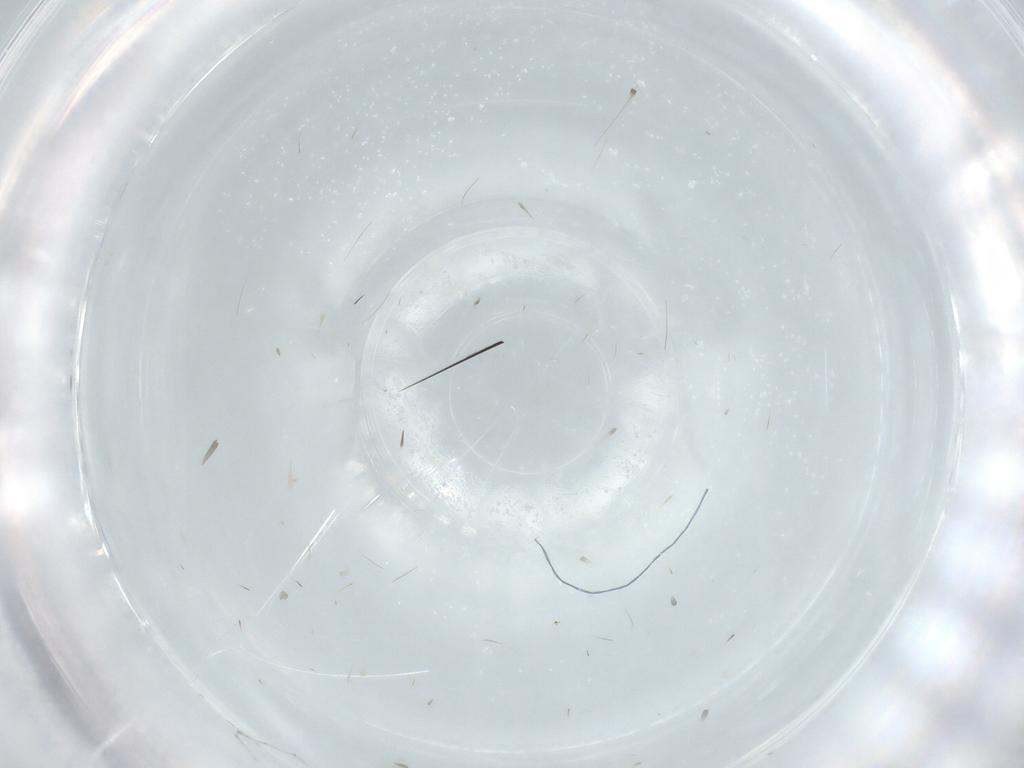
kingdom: Animalia
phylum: Arthropoda
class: Insecta
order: Diptera
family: Cecidomyiidae
